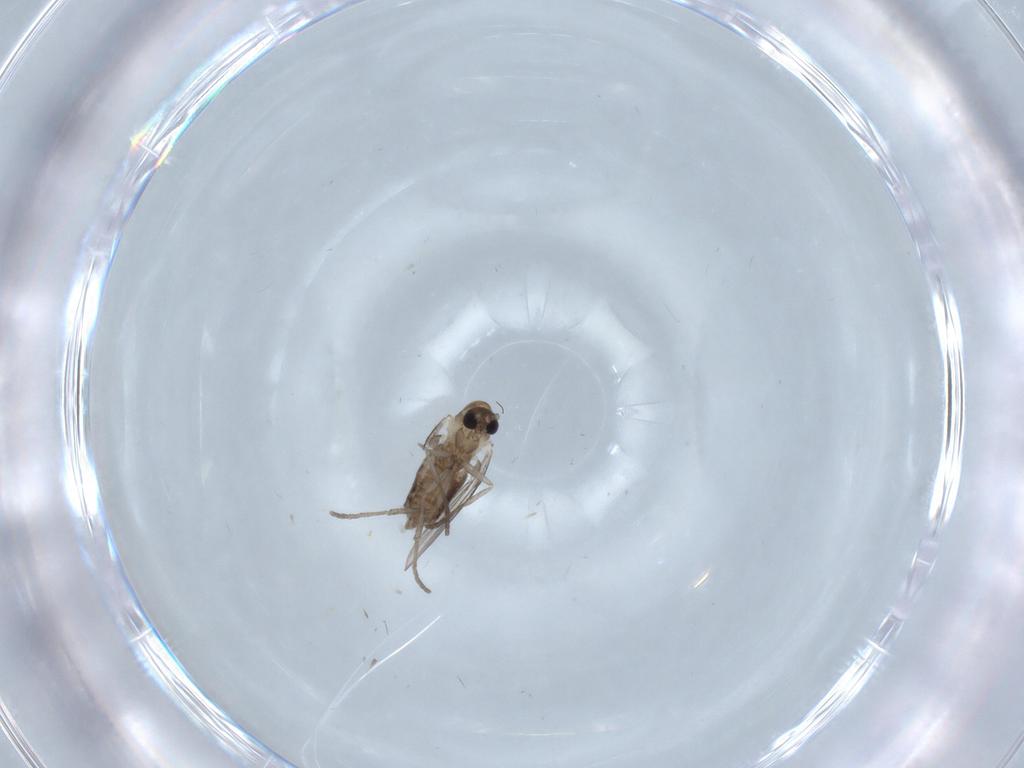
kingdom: Animalia
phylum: Arthropoda
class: Insecta
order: Diptera
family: Psychodidae
